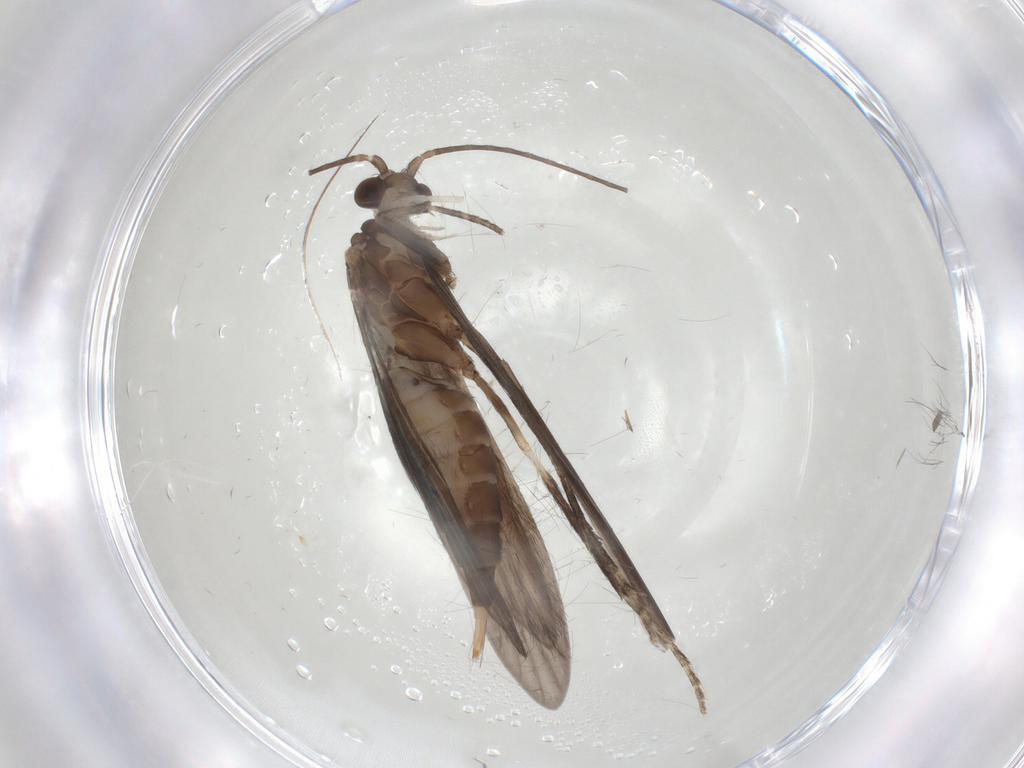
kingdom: Animalia
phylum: Arthropoda
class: Insecta
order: Trichoptera
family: Xiphocentronidae
